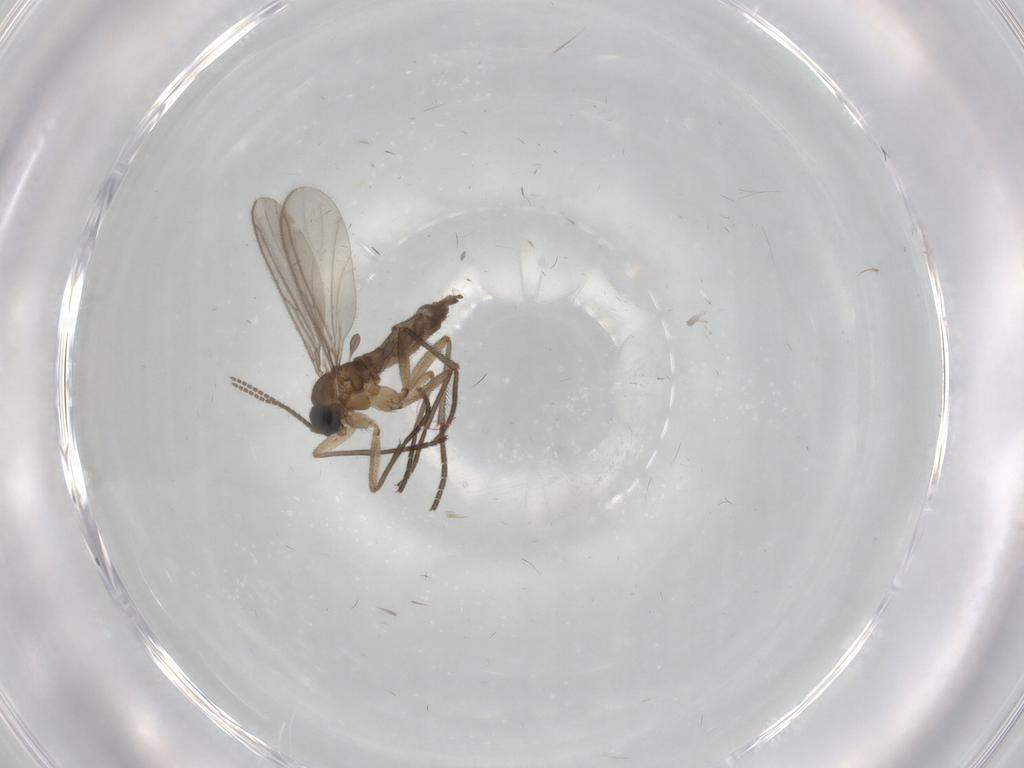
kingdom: Animalia
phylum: Arthropoda
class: Insecta
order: Diptera
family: Sciaridae
